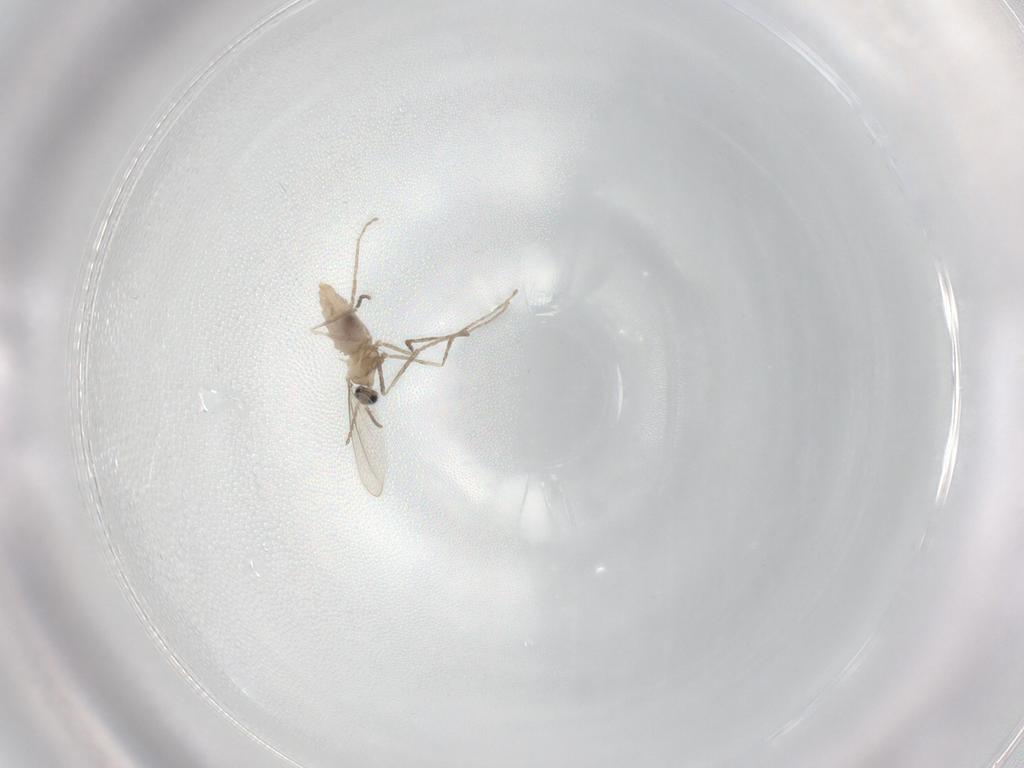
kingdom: Animalia
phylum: Arthropoda
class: Insecta
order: Diptera
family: Cecidomyiidae
